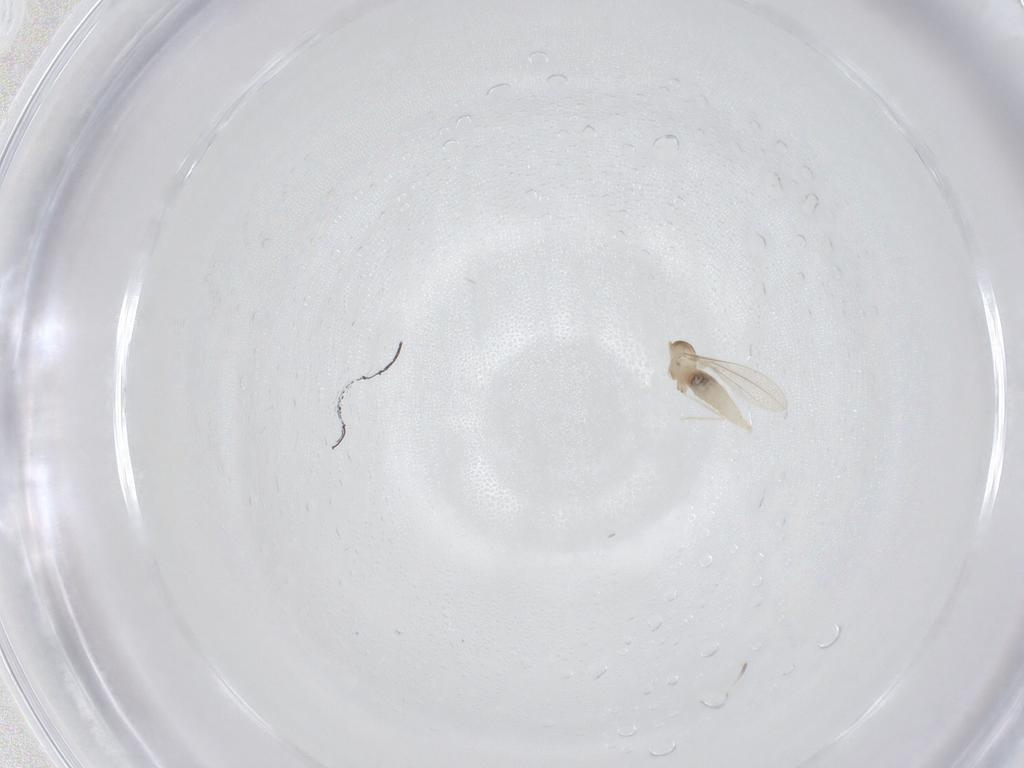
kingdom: Animalia
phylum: Arthropoda
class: Insecta
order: Diptera
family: Cecidomyiidae
